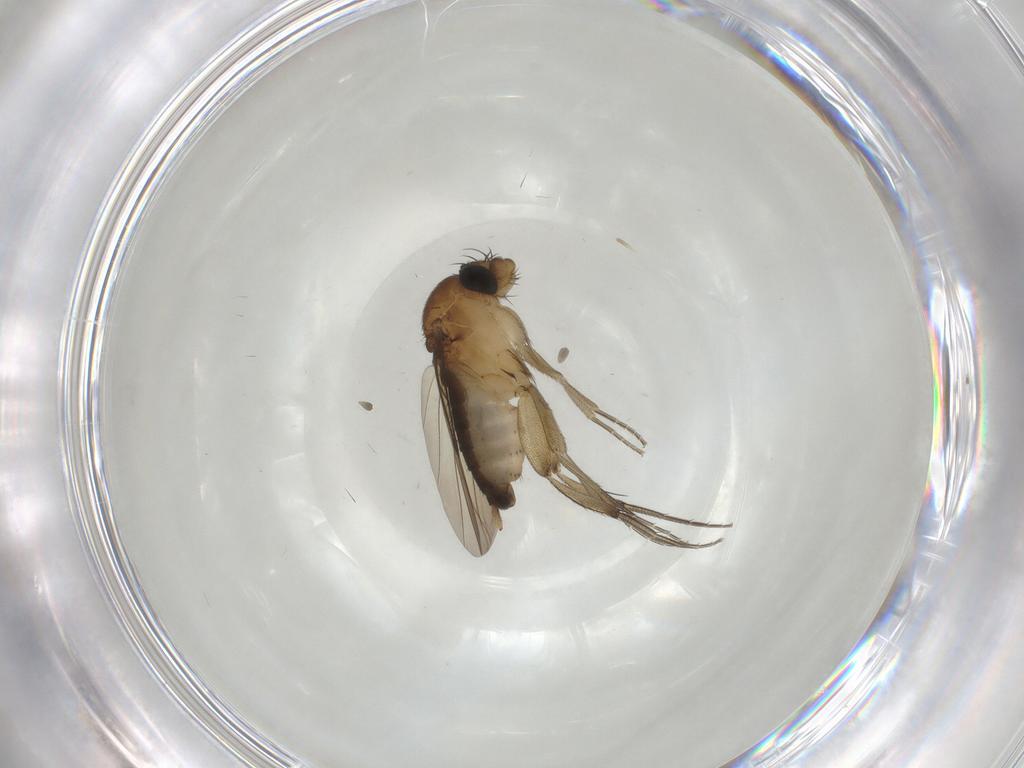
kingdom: Animalia
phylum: Arthropoda
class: Insecta
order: Diptera
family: Phoridae
